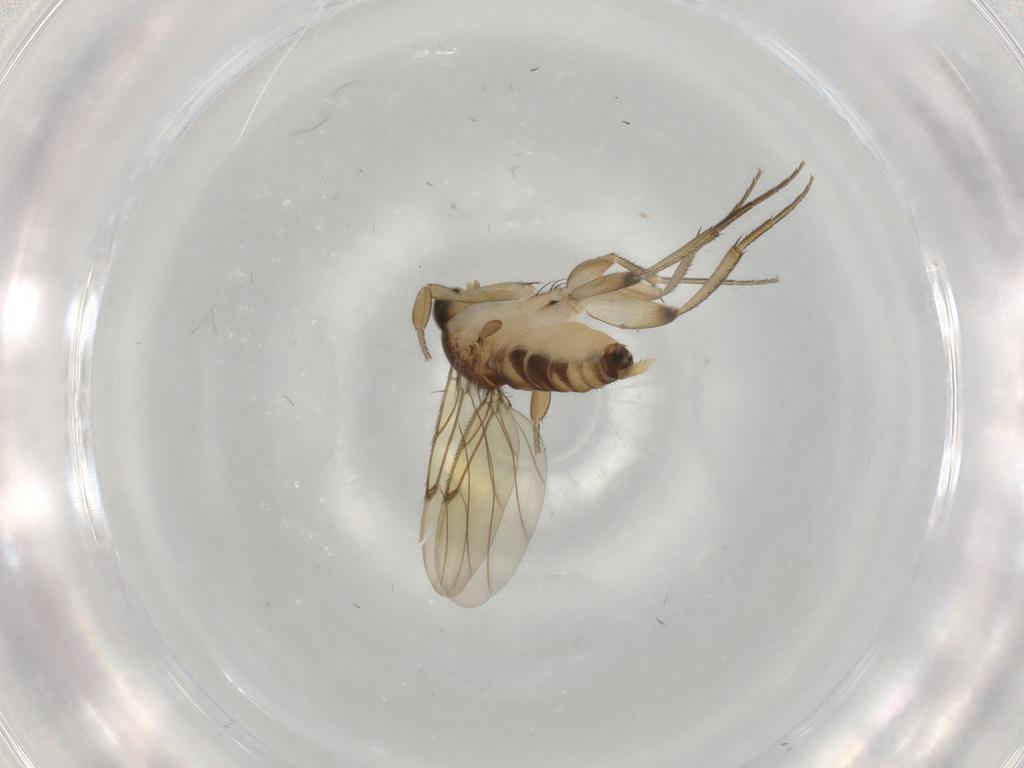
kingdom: Animalia
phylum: Arthropoda
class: Insecta
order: Diptera
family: Phoridae
